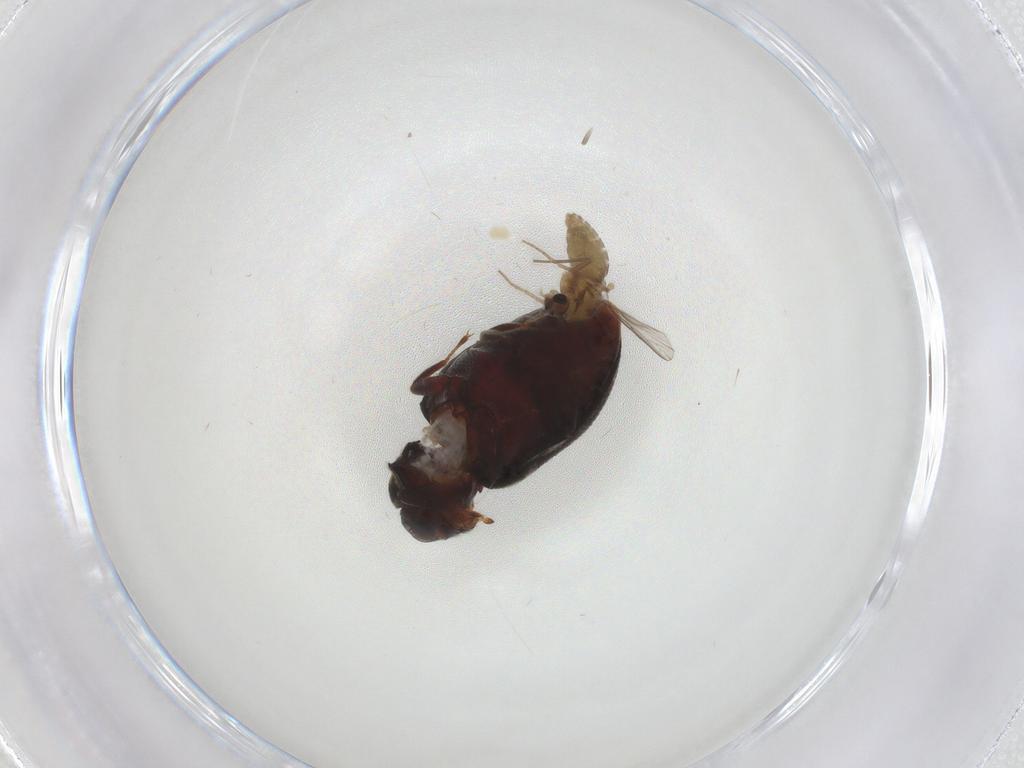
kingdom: Animalia
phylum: Arthropoda
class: Insecta
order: Coleoptera
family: Limnichidae
